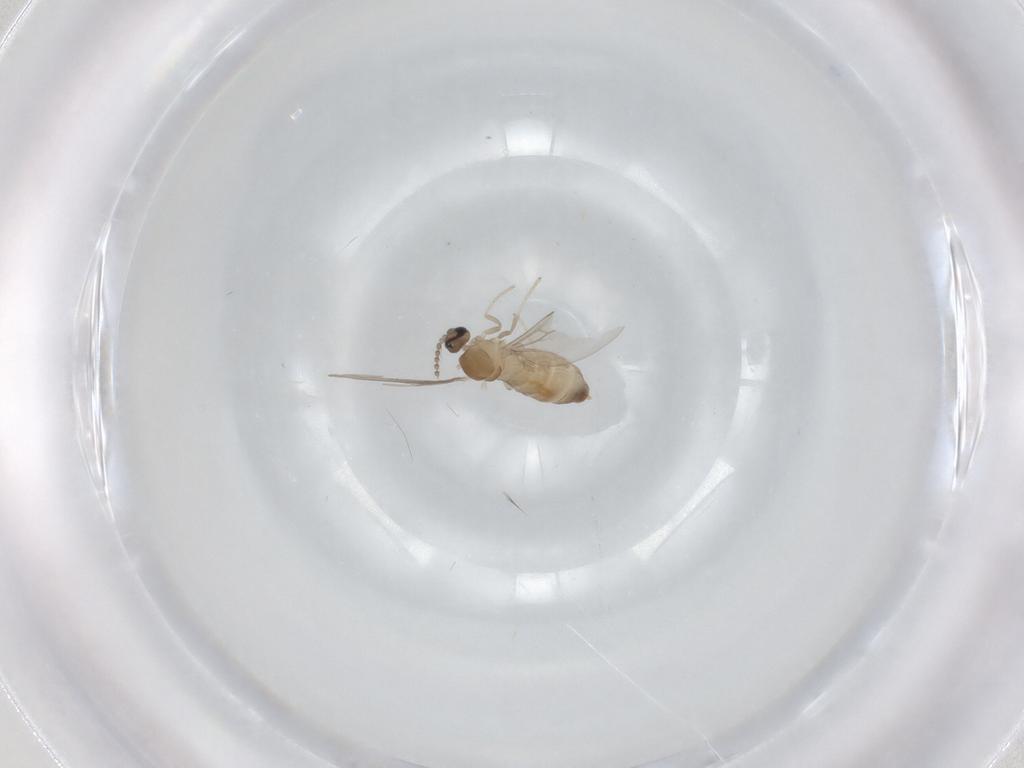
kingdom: Animalia
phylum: Arthropoda
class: Insecta
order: Diptera
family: Cecidomyiidae
